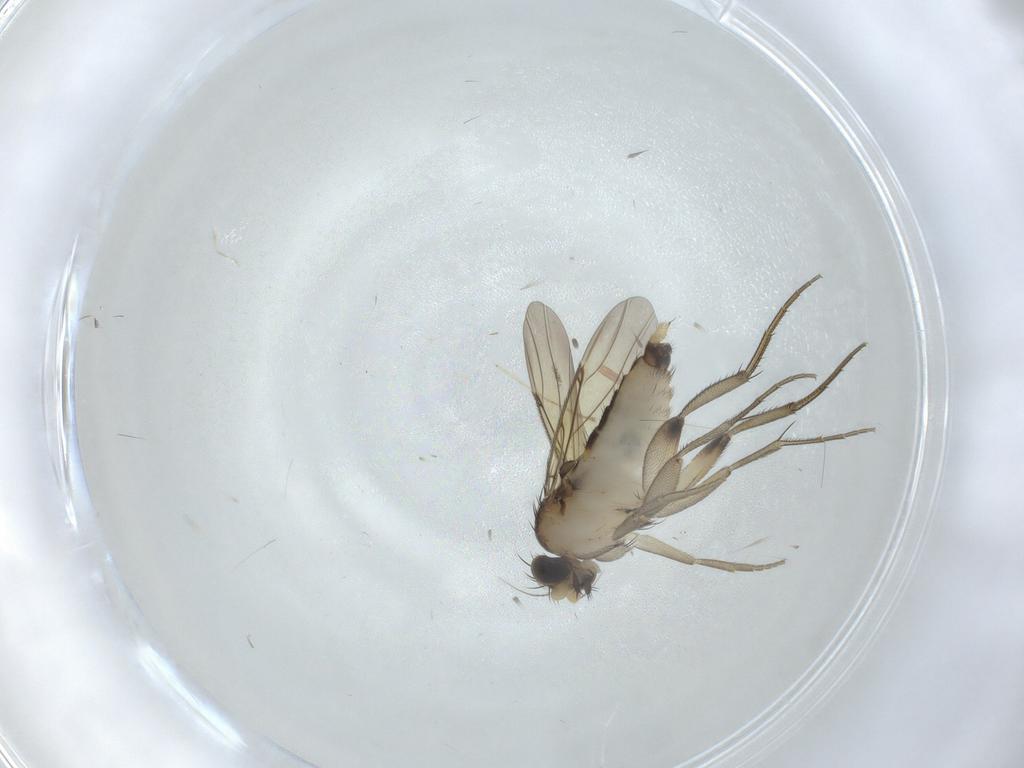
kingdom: Animalia
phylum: Arthropoda
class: Insecta
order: Diptera
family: Phoridae
